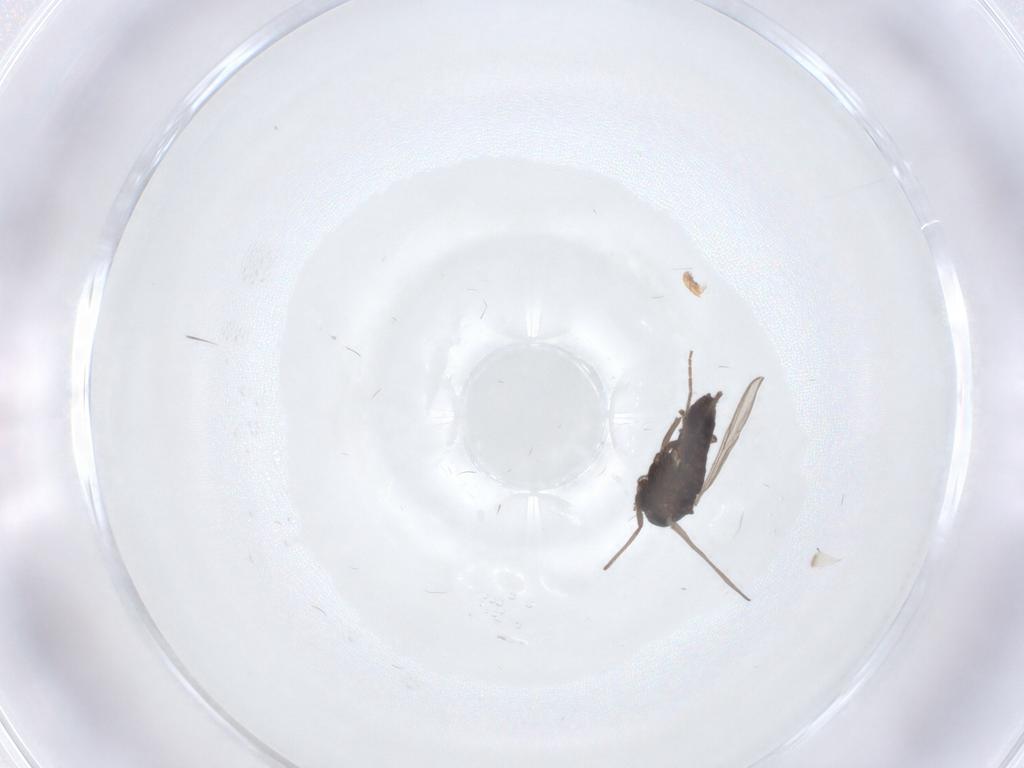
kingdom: Animalia
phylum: Arthropoda
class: Insecta
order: Diptera
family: Chironomidae
